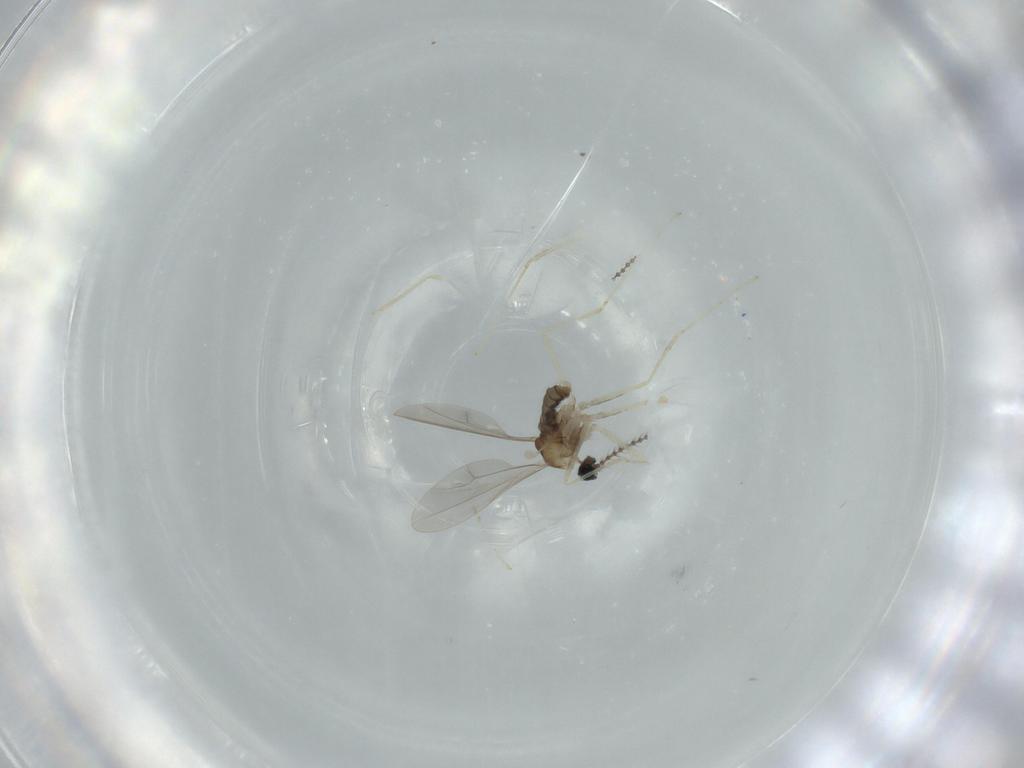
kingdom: Animalia
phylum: Arthropoda
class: Insecta
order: Diptera
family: Cecidomyiidae
